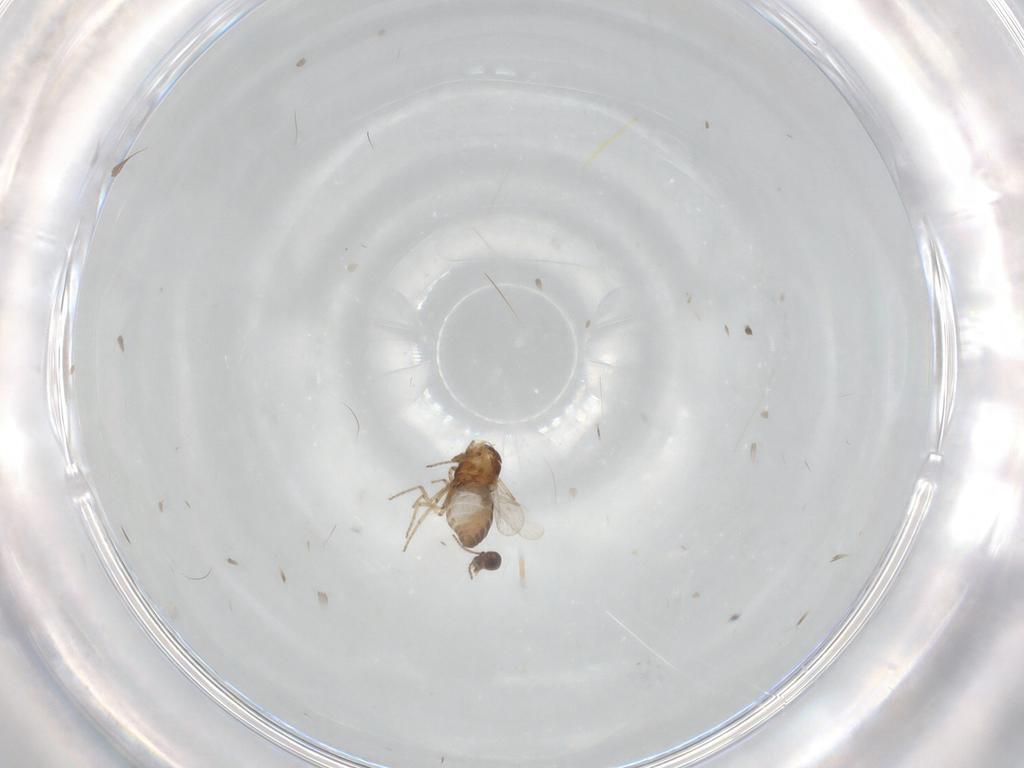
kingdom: Animalia
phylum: Arthropoda
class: Insecta
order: Diptera
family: Ceratopogonidae
